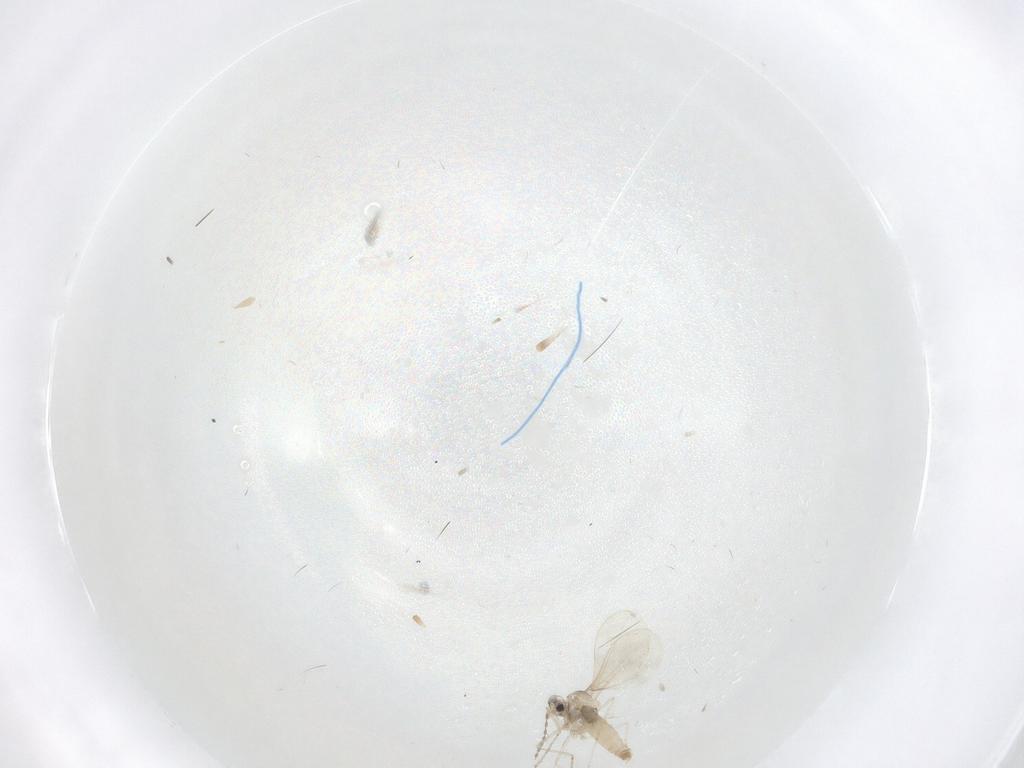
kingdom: Animalia
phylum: Arthropoda
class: Insecta
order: Diptera
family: Cecidomyiidae
